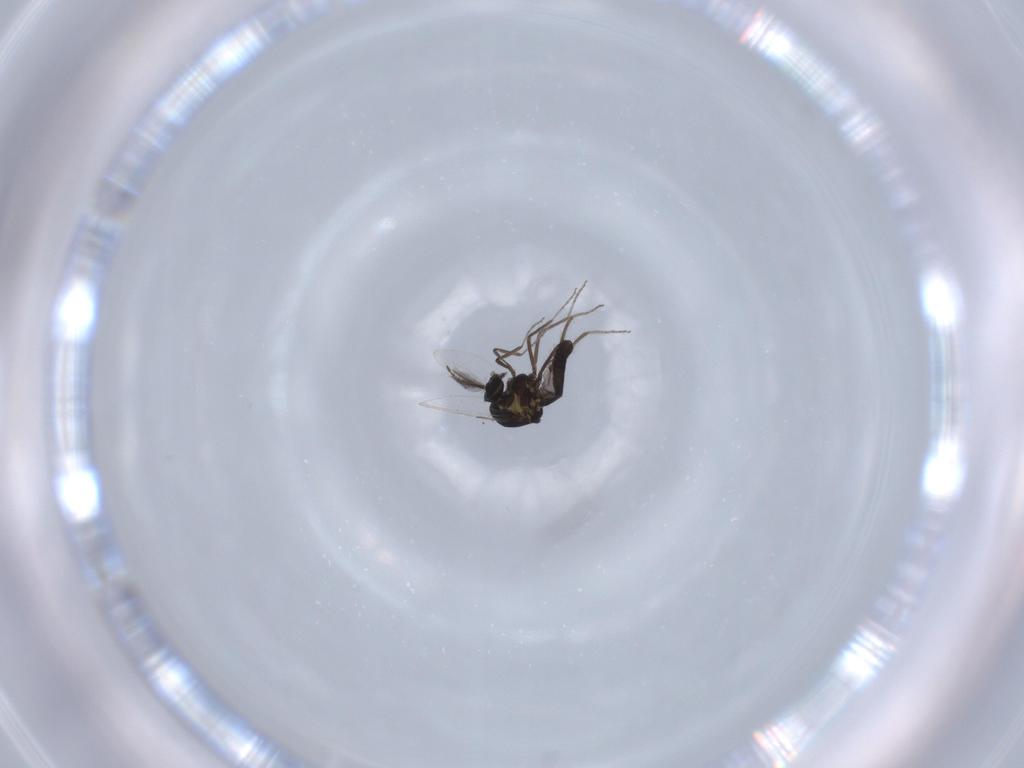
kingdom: Animalia
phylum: Arthropoda
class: Insecta
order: Diptera
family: Ceratopogonidae
